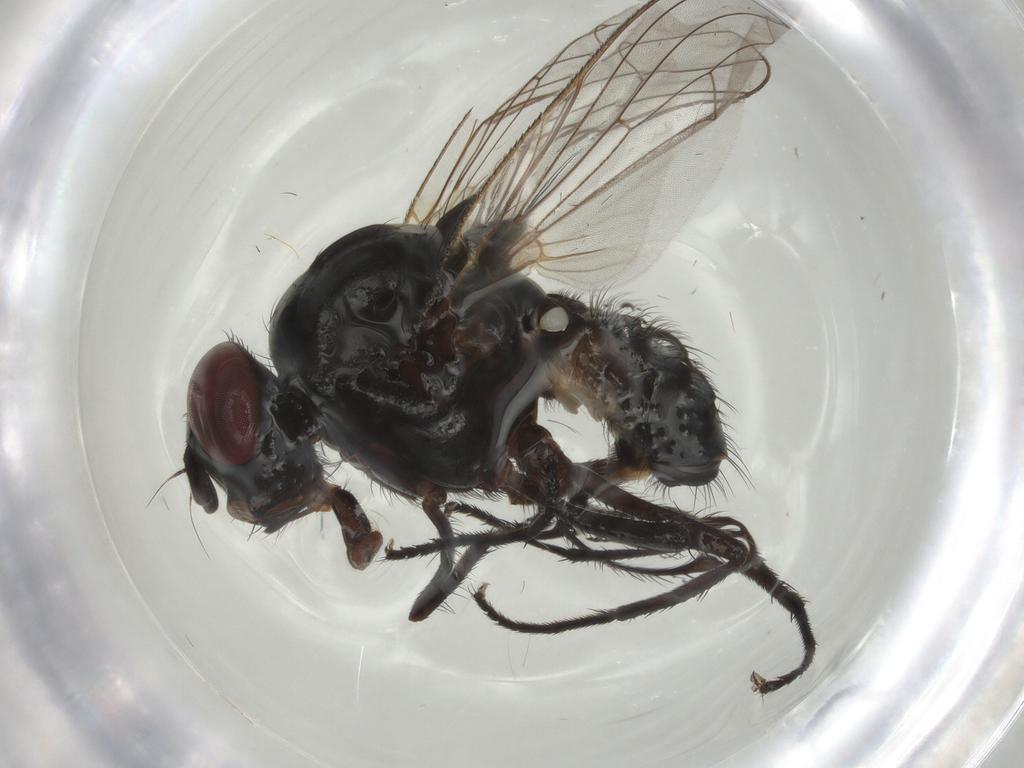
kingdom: Animalia
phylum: Arthropoda
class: Insecta
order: Diptera
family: Anthomyiidae
